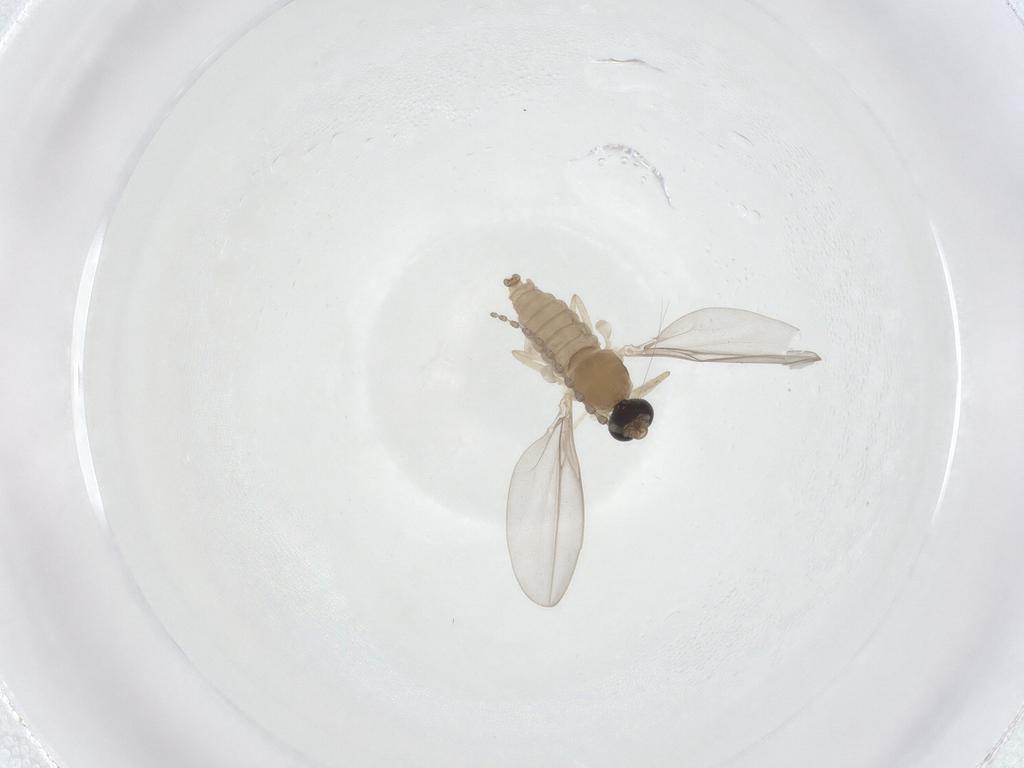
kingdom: Animalia
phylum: Arthropoda
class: Insecta
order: Diptera
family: Cecidomyiidae
